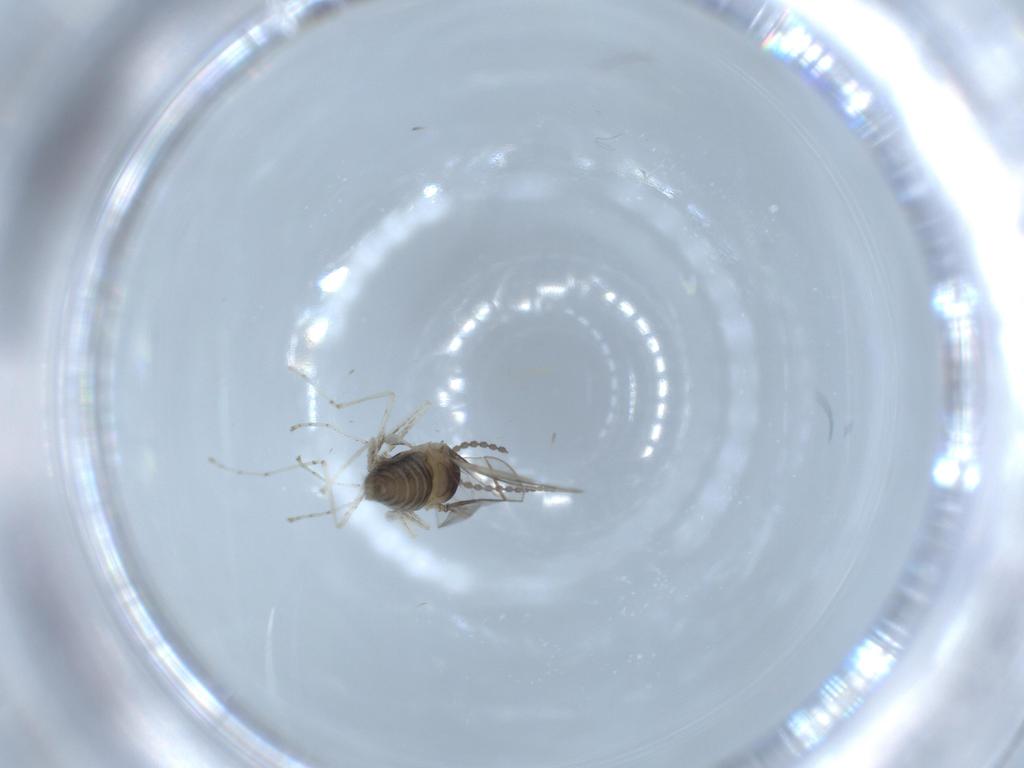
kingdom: Animalia
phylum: Arthropoda
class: Insecta
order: Diptera
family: Cecidomyiidae
